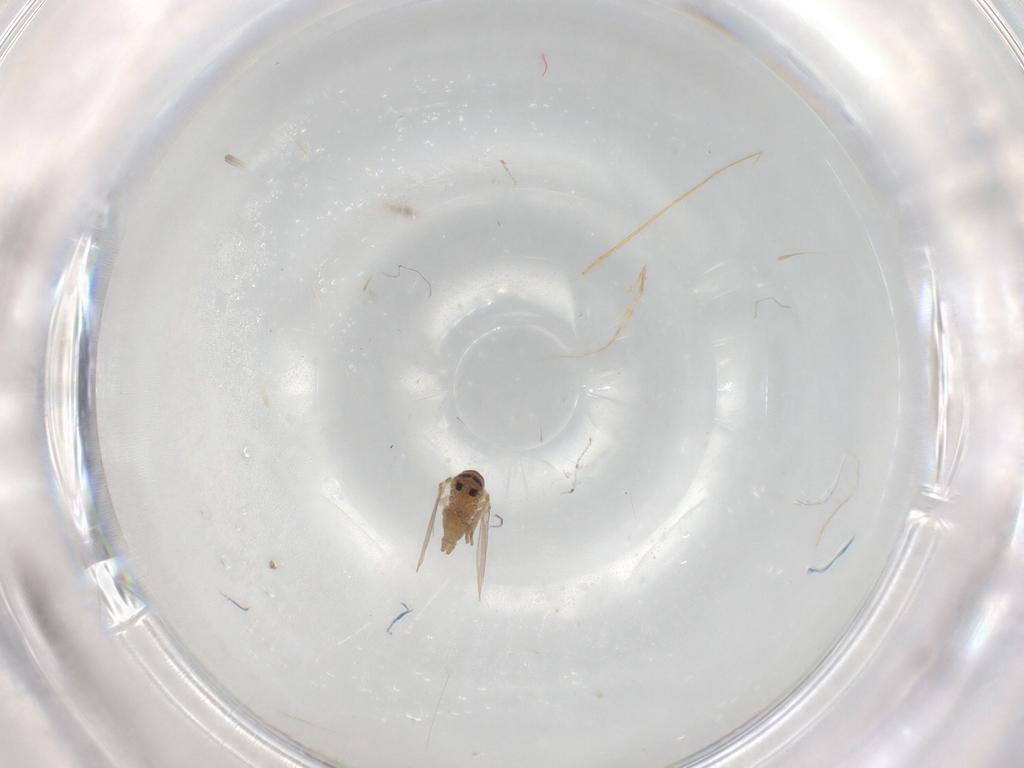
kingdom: Animalia
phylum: Arthropoda
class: Insecta
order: Diptera
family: Psychodidae
